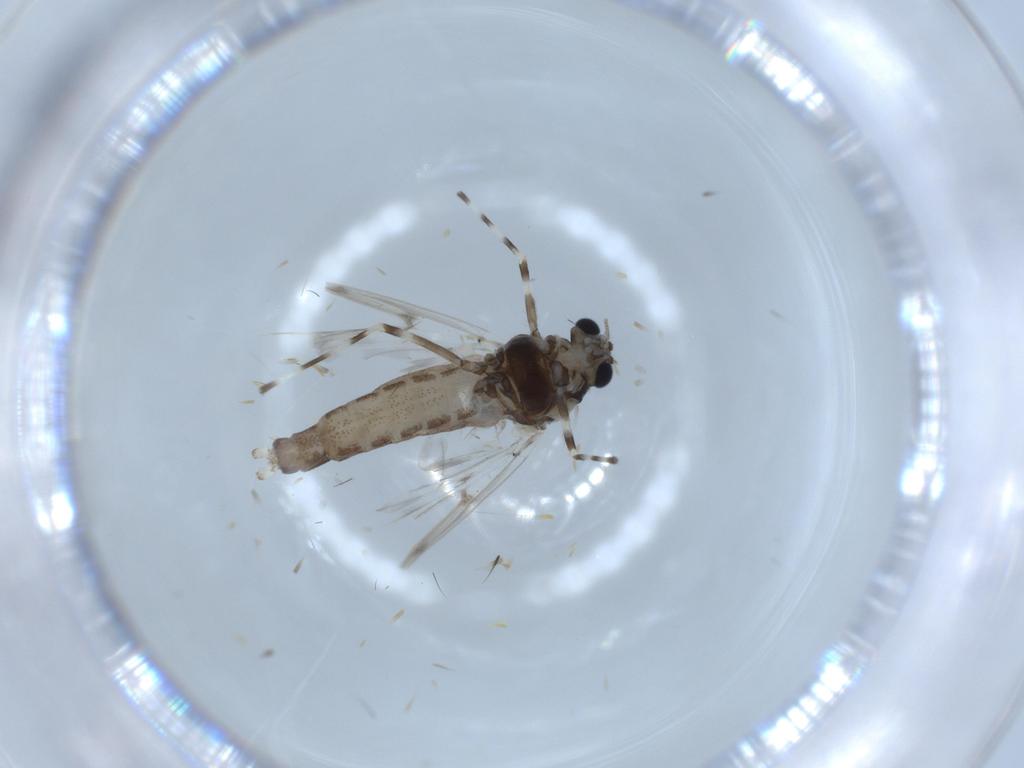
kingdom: Animalia
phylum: Arthropoda
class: Insecta
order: Diptera
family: Chironomidae
